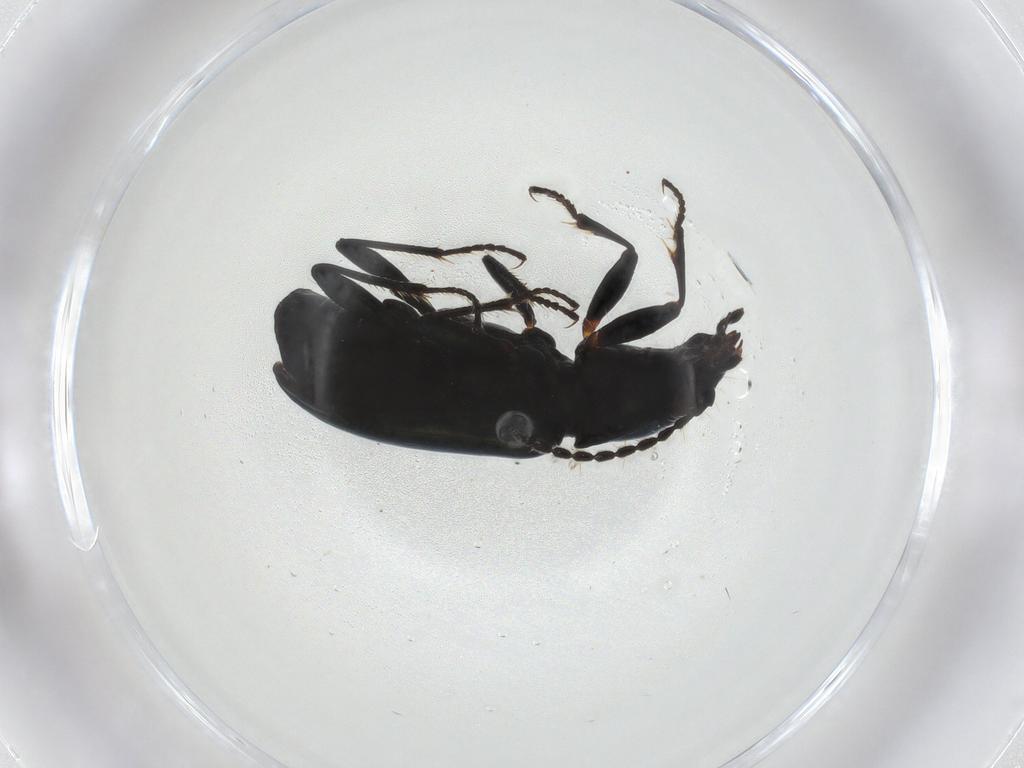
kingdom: Animalia
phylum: Arthropoda
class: Insecta
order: Coleoptera
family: Carabidae
